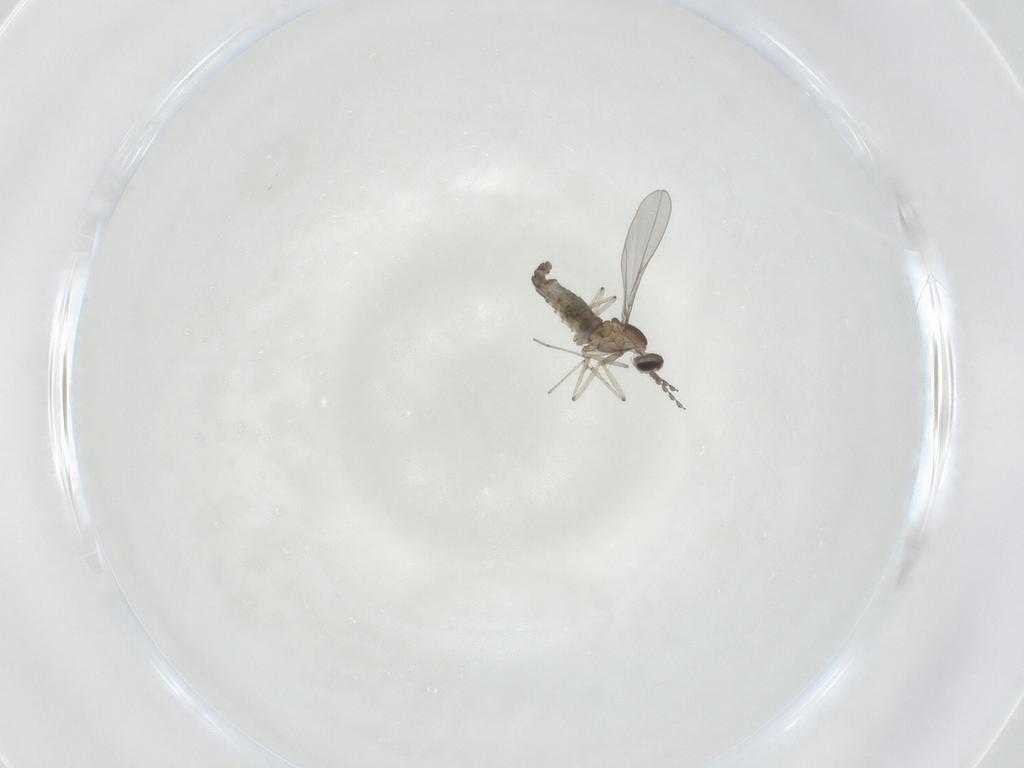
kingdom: Animalia
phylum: Arthropoda
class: Insecta
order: Diptera
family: Cecidomyiidae
